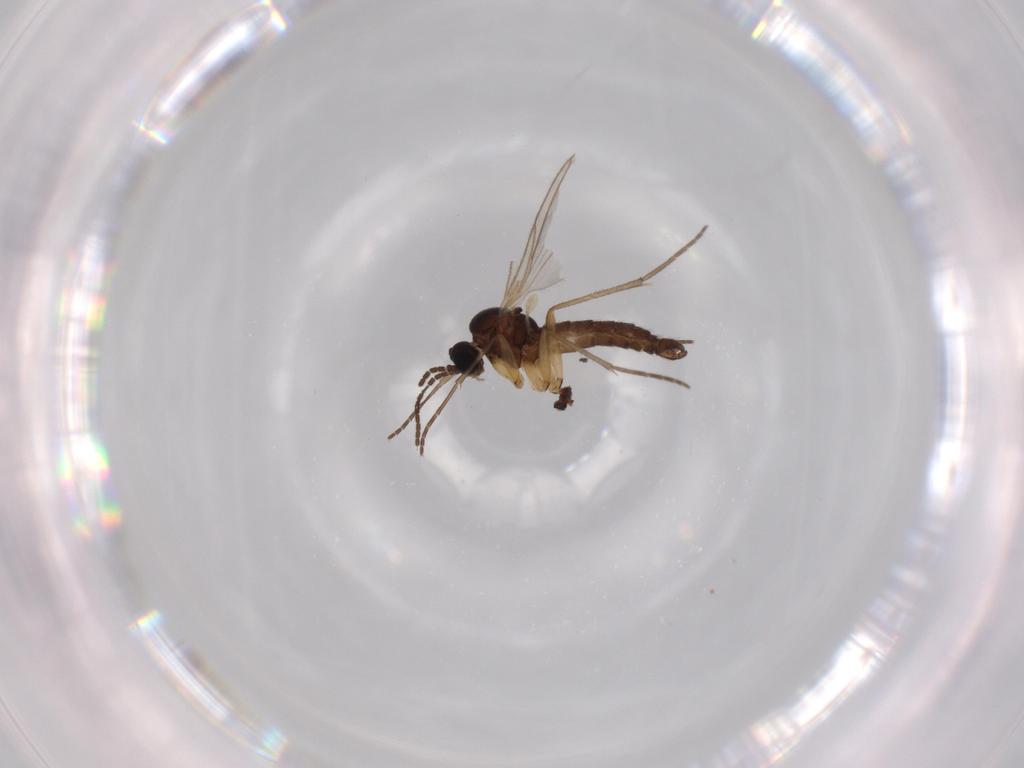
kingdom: Animalia
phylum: Arthropoda
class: Insecta
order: Diptera
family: Sciaridae
